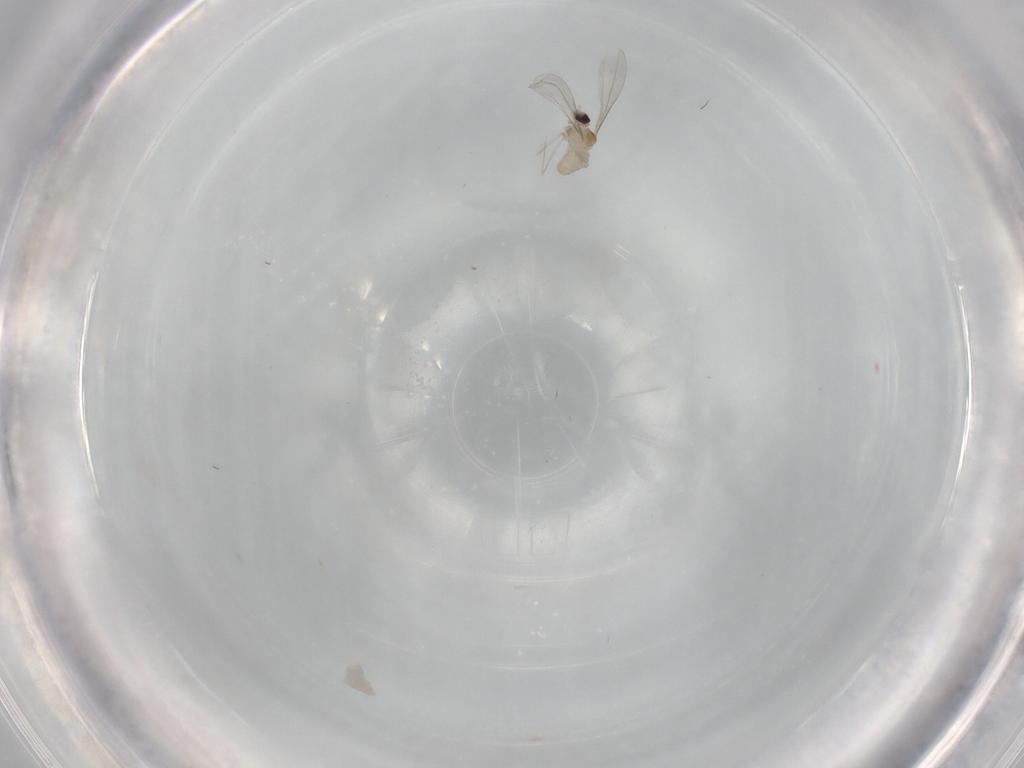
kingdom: Animalia
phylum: Arthropoda
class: Insecta
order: Diptera
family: Cecidomyiidae
